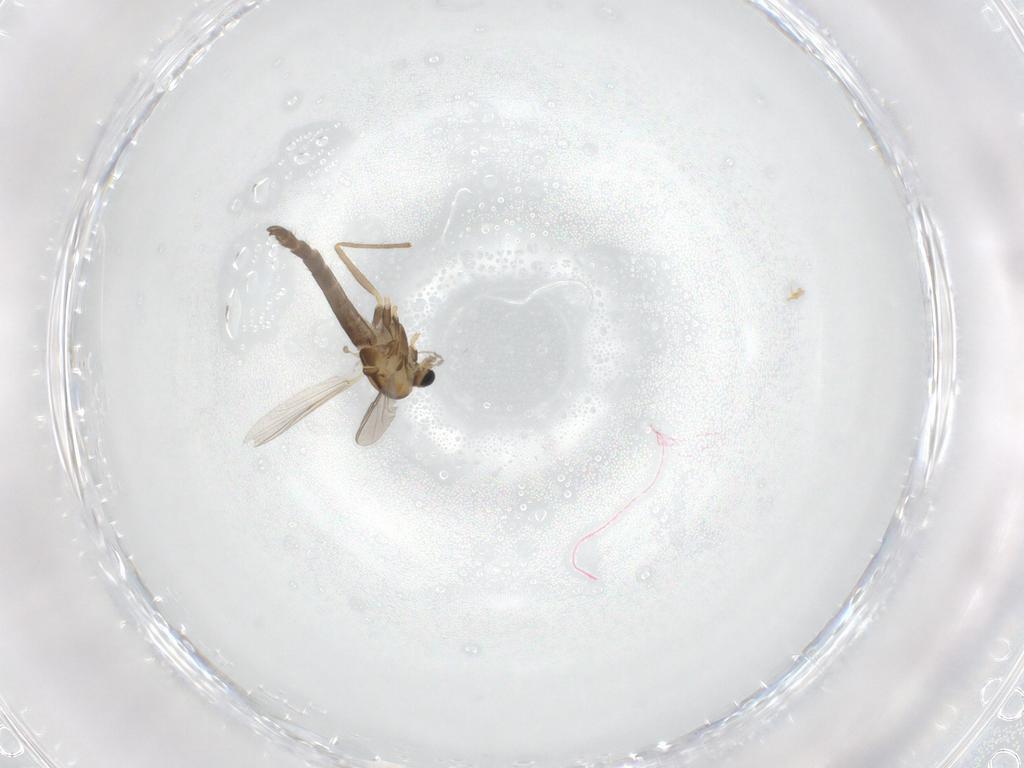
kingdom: Animalia
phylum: Arthropoda
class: Insecta
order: Diptera
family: Chironomidae
